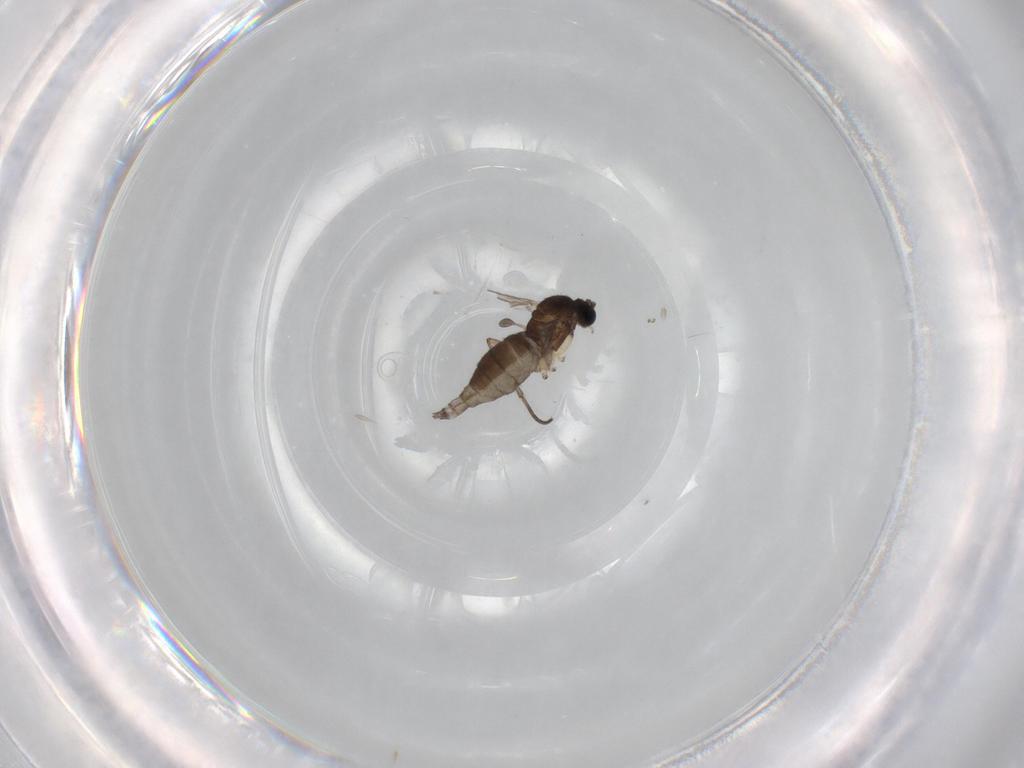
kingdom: Animalia
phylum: Arthropoda
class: Insecta
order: Diptera
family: Sciaridae
